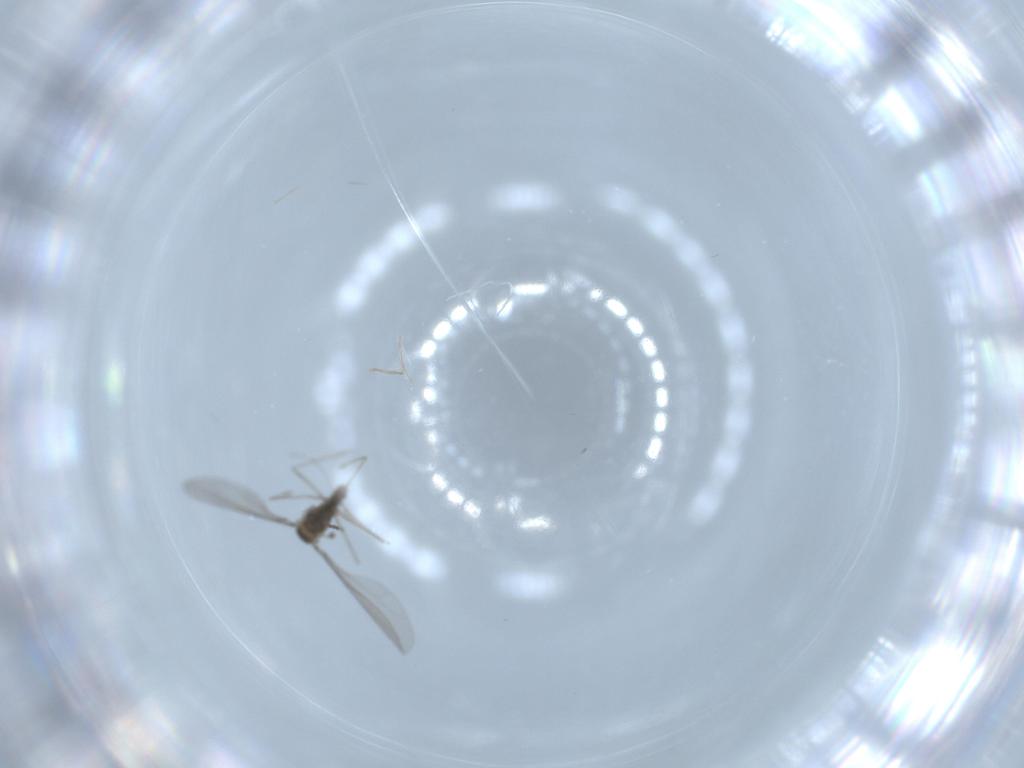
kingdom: Animalia
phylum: Arthropoda
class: Insecta
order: Diptera
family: Cecidomyiidae
